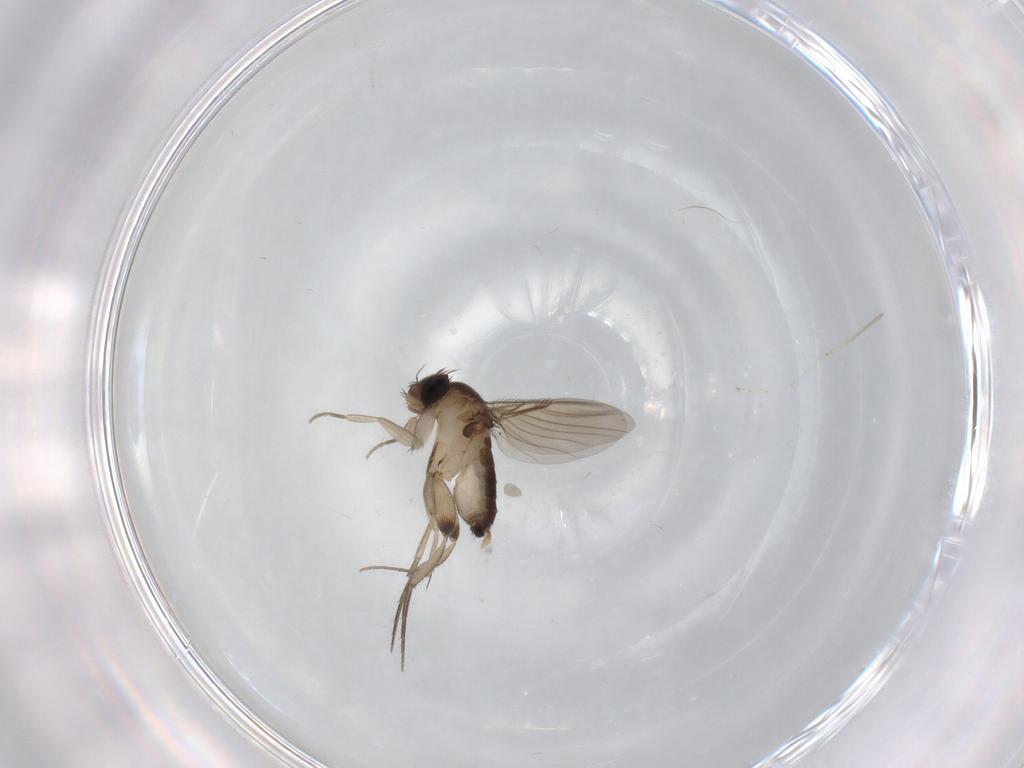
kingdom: Animalia
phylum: Arthropoda
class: Insecta
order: Diptera
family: Phoridae
